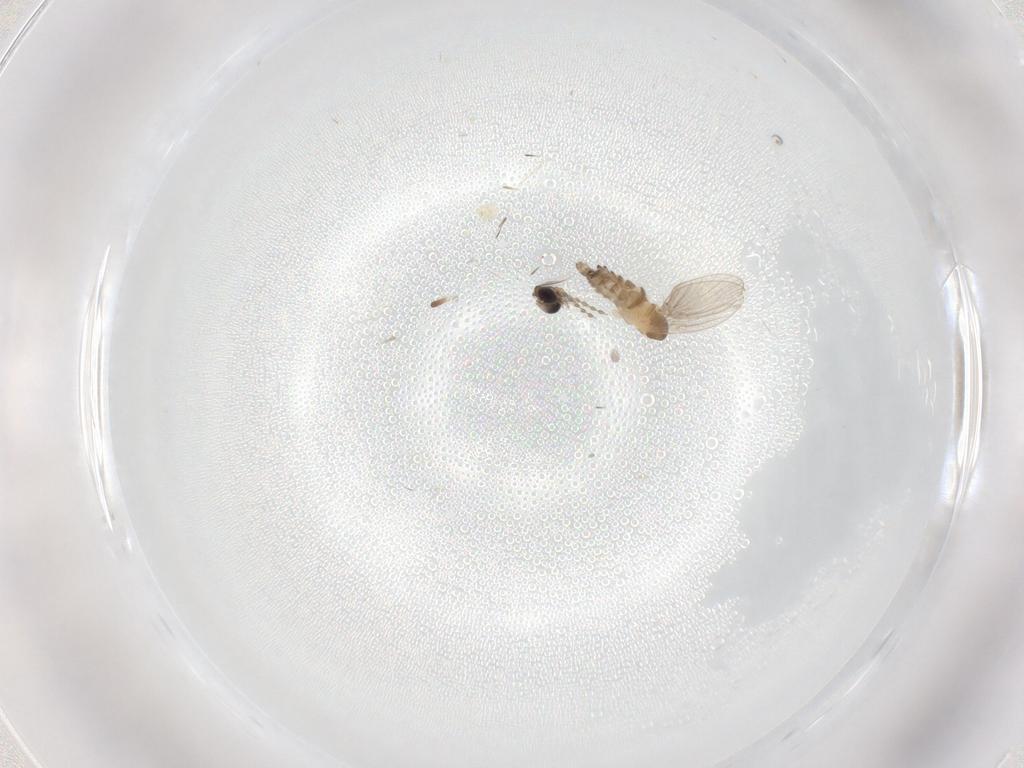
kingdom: Animalia
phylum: Arthropoda
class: Insecta
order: Diptera
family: Psychodidae
